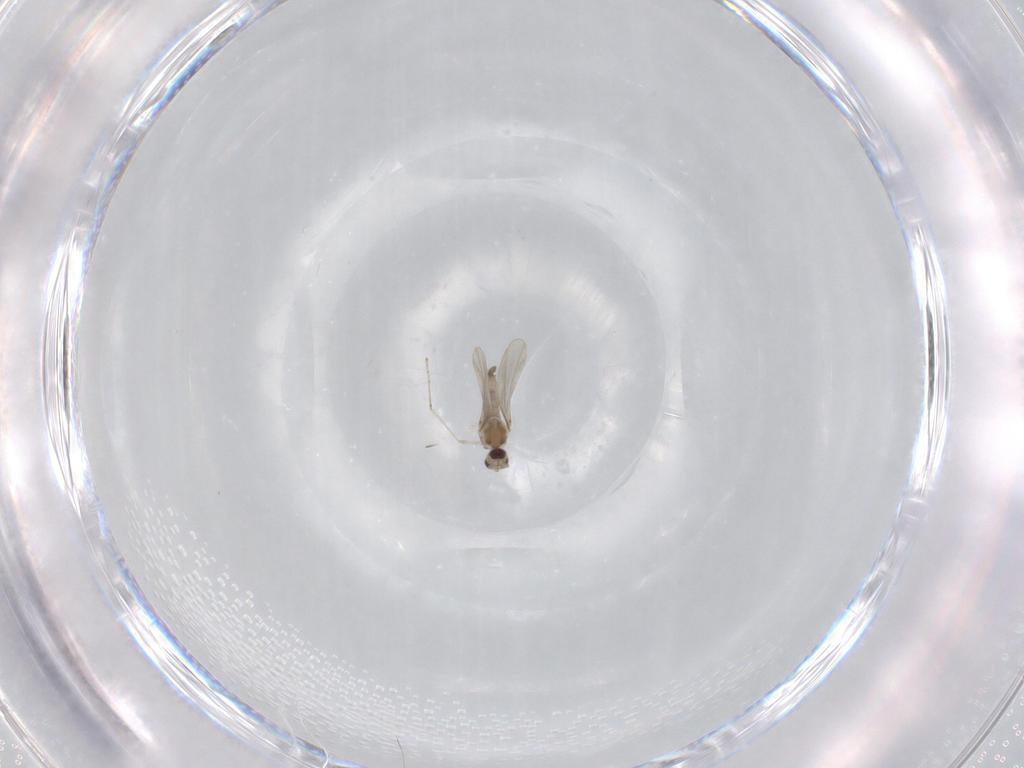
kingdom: Animalia
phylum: Arthropoda
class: Insecta
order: Diptera
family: Cecidomyiidae
